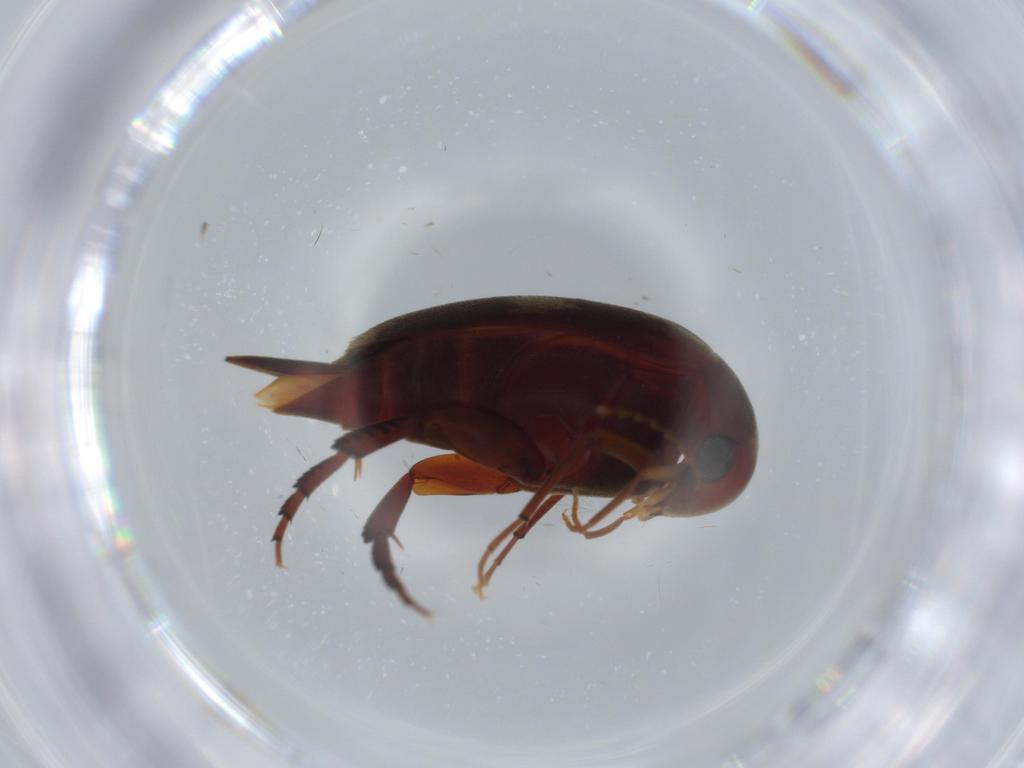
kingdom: Animalia
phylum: Arthropoda
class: Insecta
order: Coleoptera
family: Mordellidae
